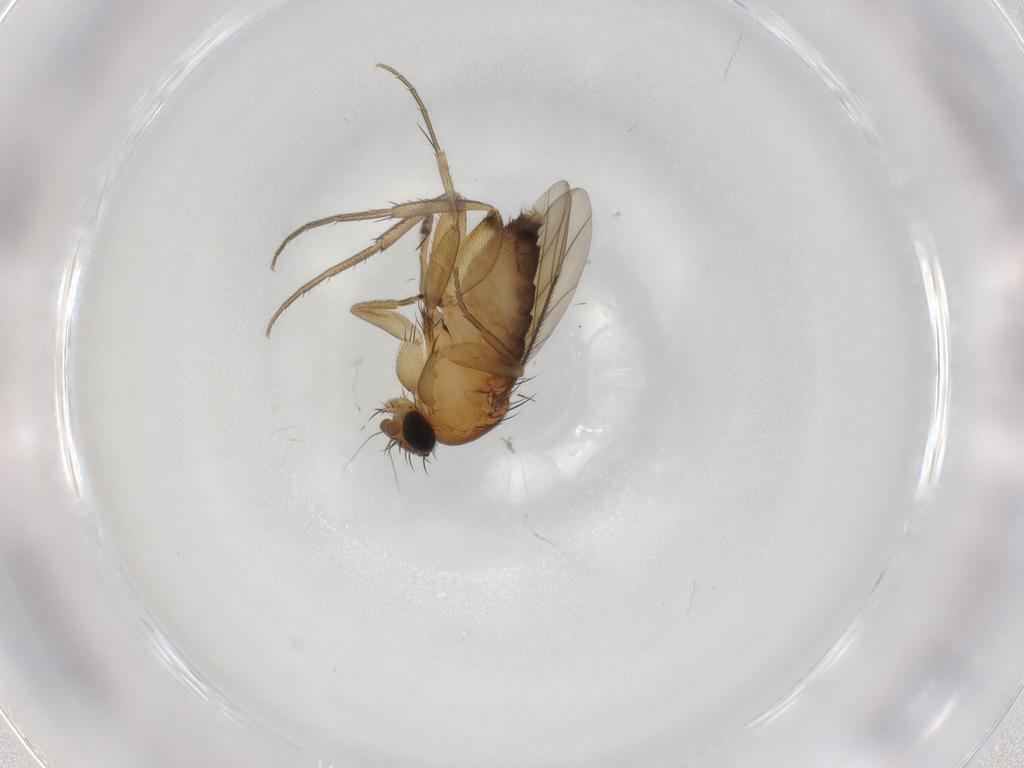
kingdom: Animalia
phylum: Arthropoda
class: Insecta
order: Diptera
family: Phoridae
